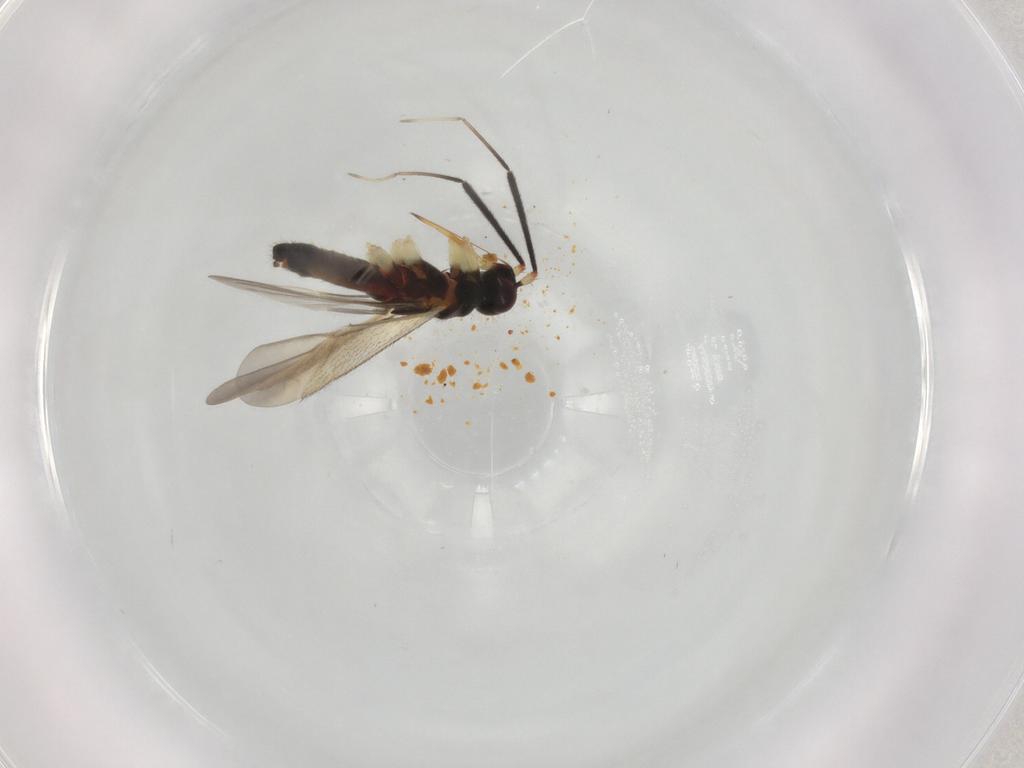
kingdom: Animalia
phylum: Arthropoda
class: Insecta
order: Hemiptera
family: Miridae
